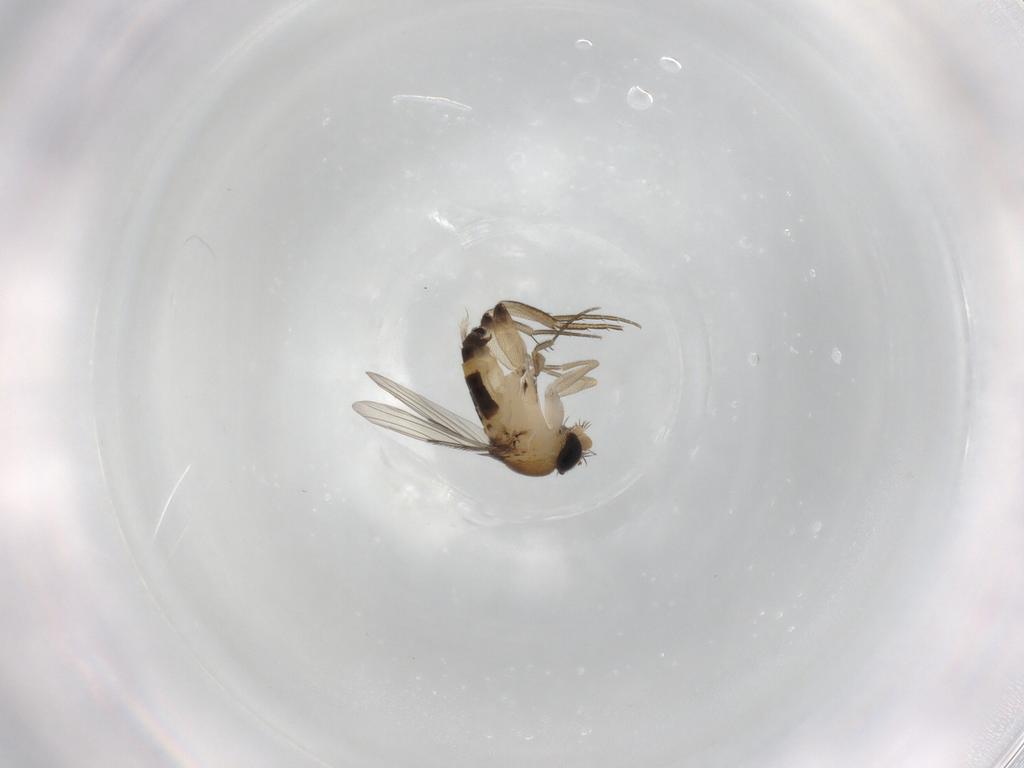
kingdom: Animalia
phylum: Arthropoda
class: Insecta
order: Diptera
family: Phoridae
